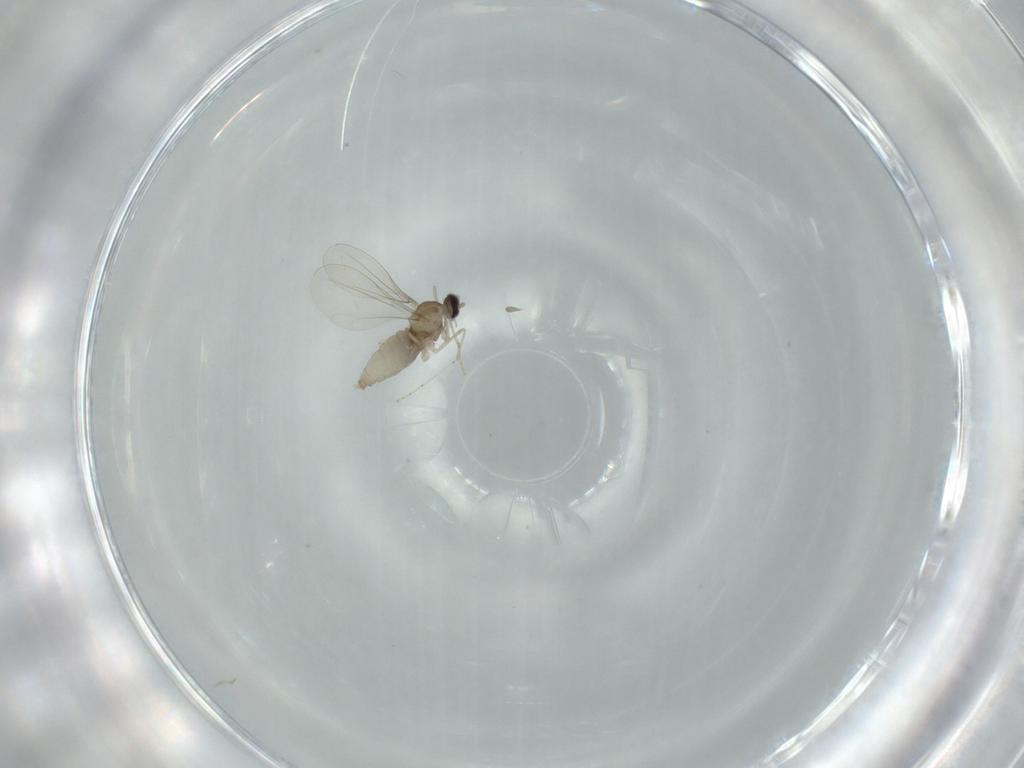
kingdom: Animalia
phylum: Arthropoda
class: Insecta
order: Diptera
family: Cecidomyiidae
